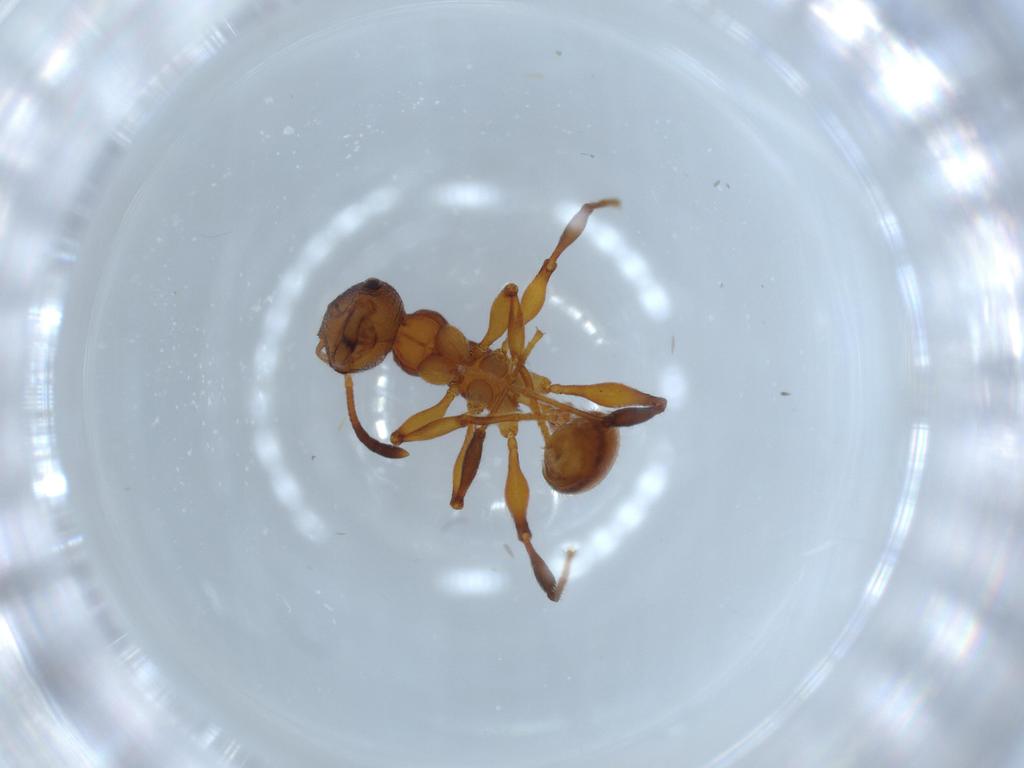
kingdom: Animalia
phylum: Arthropoda
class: Insecta
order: Hymenoptera
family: Formicidae
